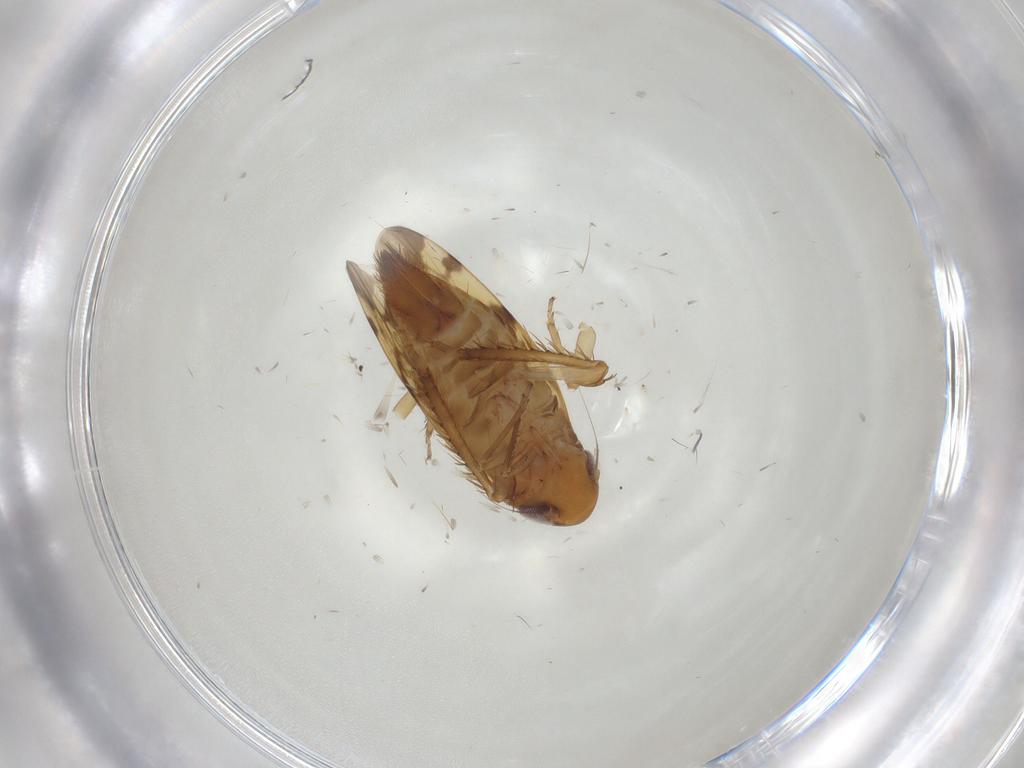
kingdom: Animalia
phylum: Arthropoda
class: Insecta
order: Hemiptera
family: Cicadellidae
